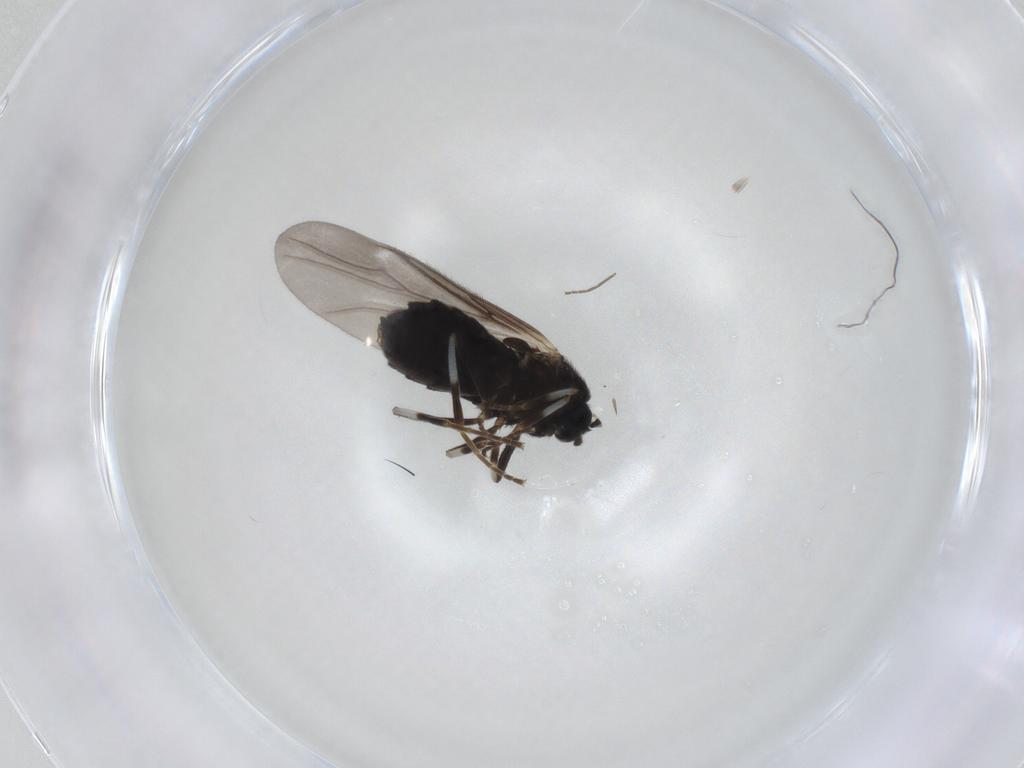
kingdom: Animalia
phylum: Arthropoda
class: Insecta
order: Diptera
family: Scatopsidae
